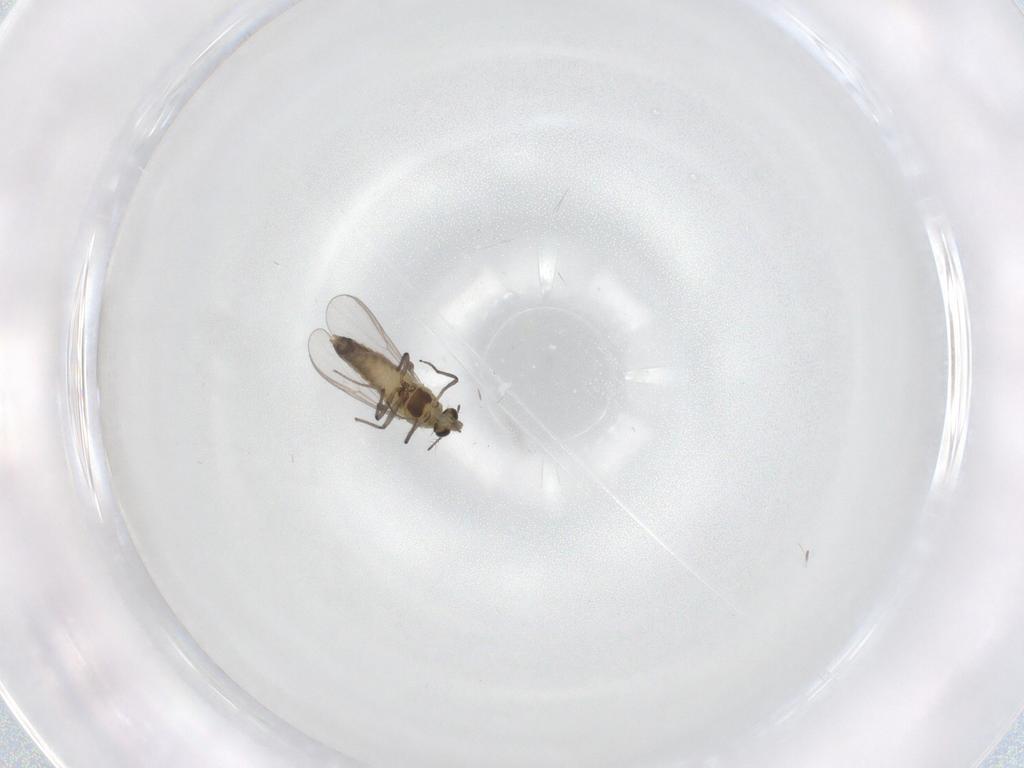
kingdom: Animalia
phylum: Arthropoda
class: Insecta
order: Diptera
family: Chironomidae
